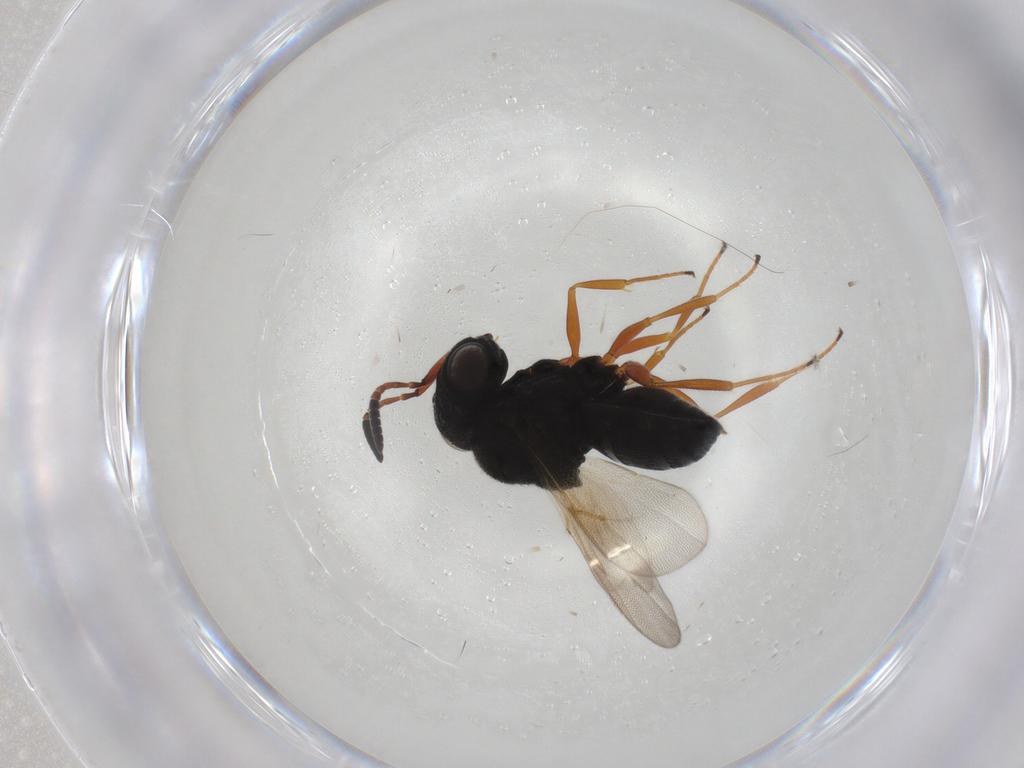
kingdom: Animalia
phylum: Arthropoda
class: Insecta
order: Hymenoptera
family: Scelionidae
